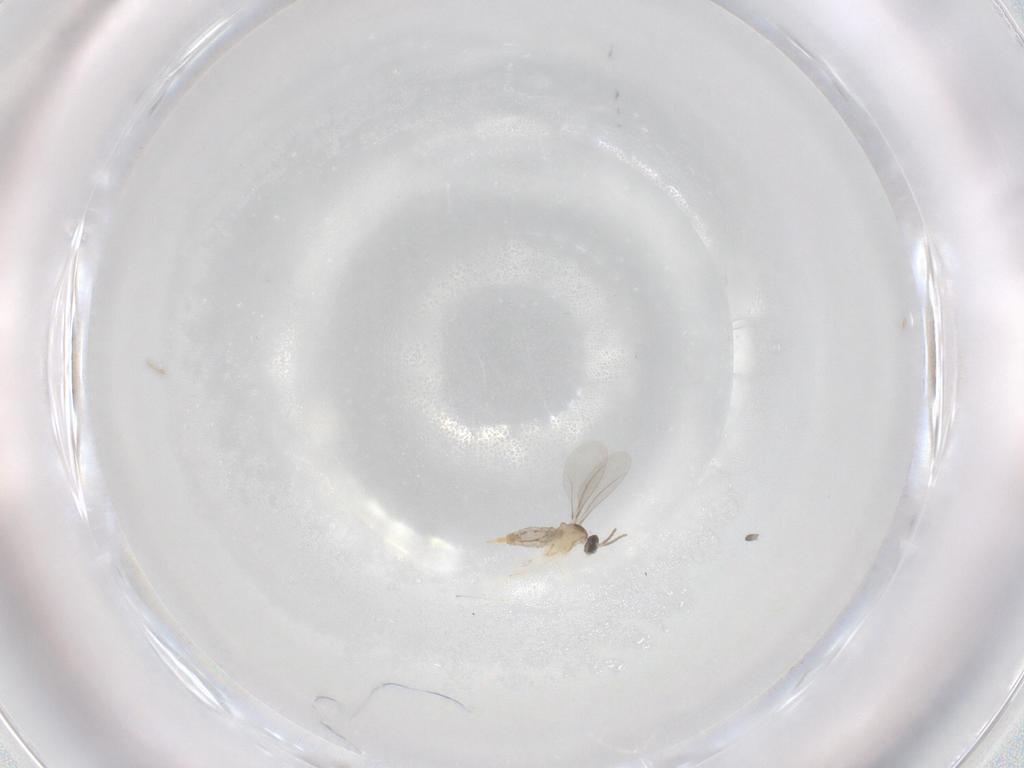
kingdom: Animalia
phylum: Arthropoda
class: Insecta
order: Diptera
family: Cecidomyiidae
